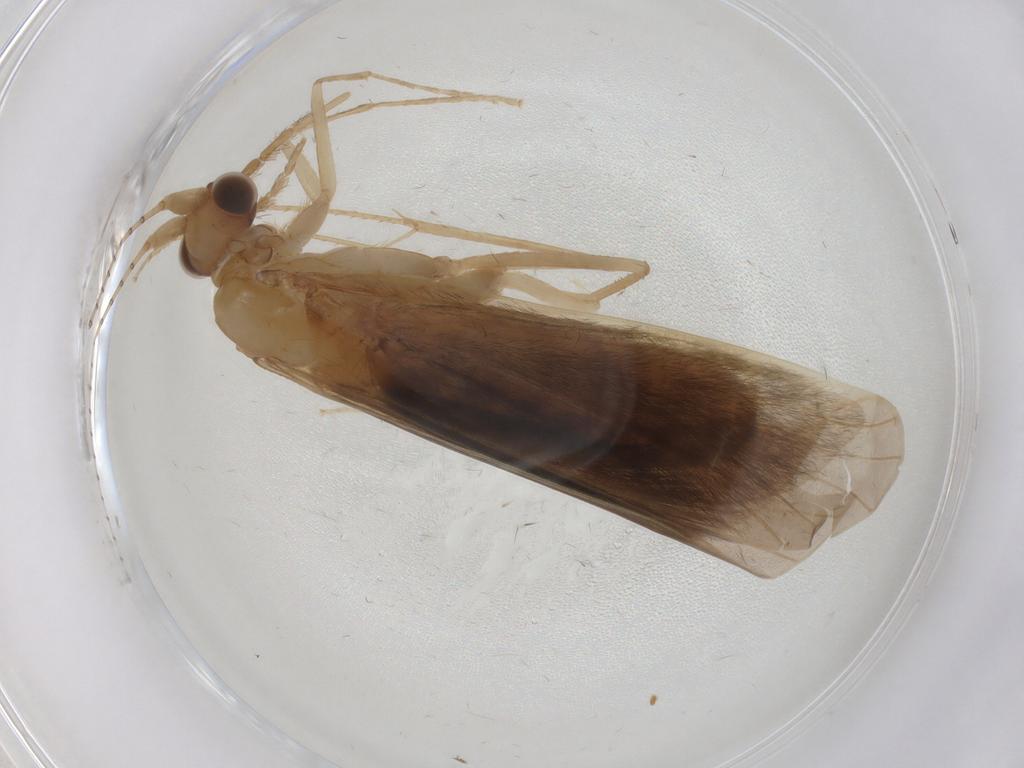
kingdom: Animalia
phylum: Arthropoda
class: Insecta
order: Trichoptera
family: Leptoceridae
